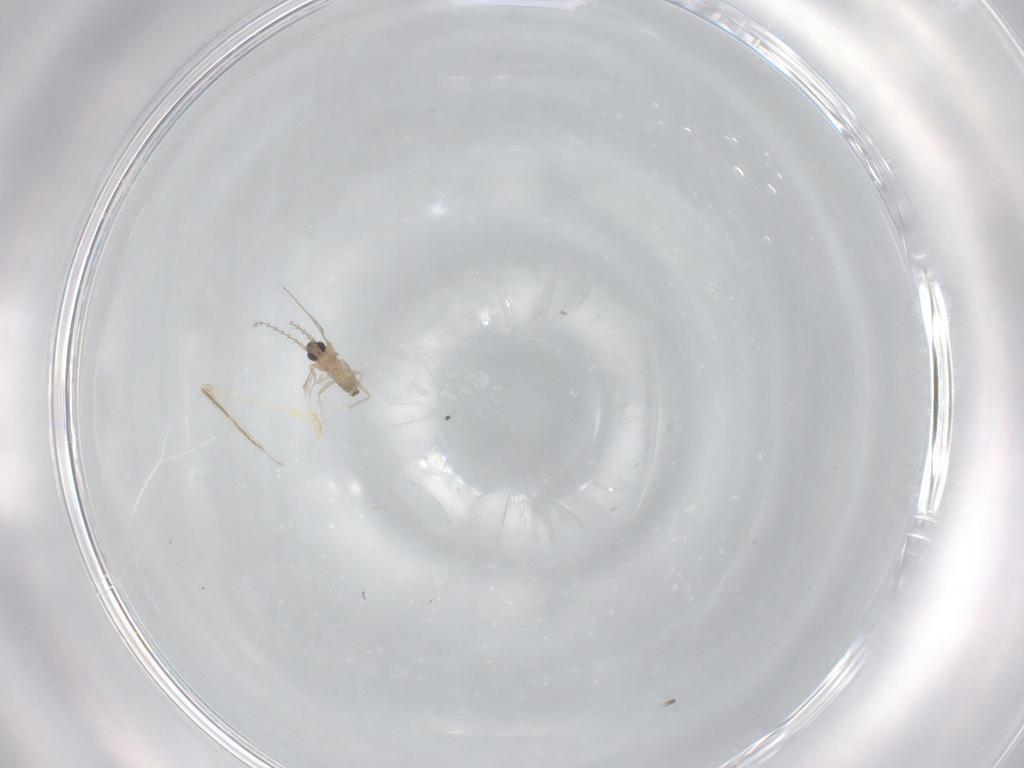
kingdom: Animalia
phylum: Arthropoda
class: Insecta
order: Diptera
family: Cecidomyiidae
